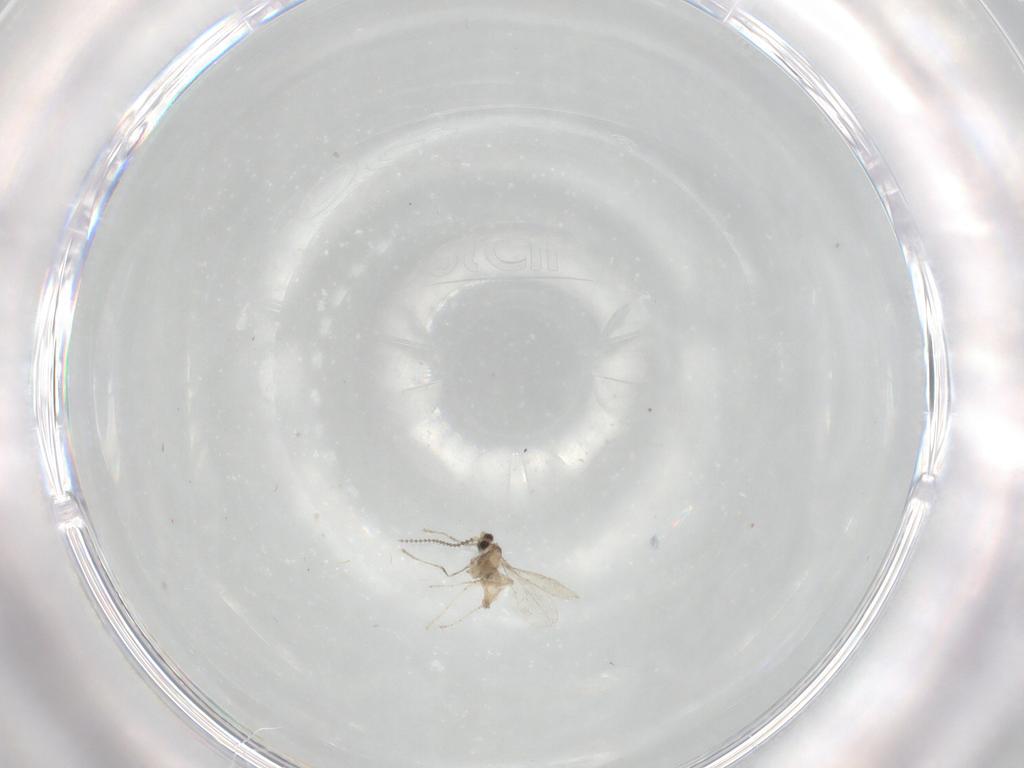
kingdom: Animalia
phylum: Arthropoda
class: Insecta
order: Diptera
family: Cecidomyiidae
